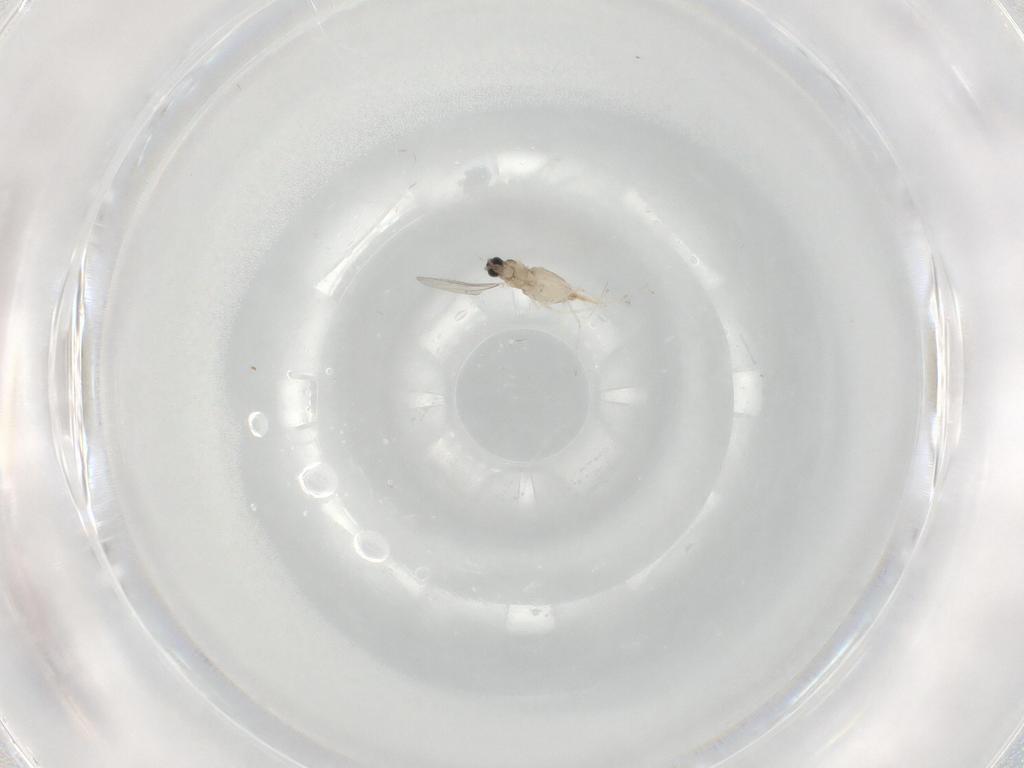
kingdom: Animalia
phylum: Arthropoda
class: Insecta
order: Diptera
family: Cecidomyiidae
